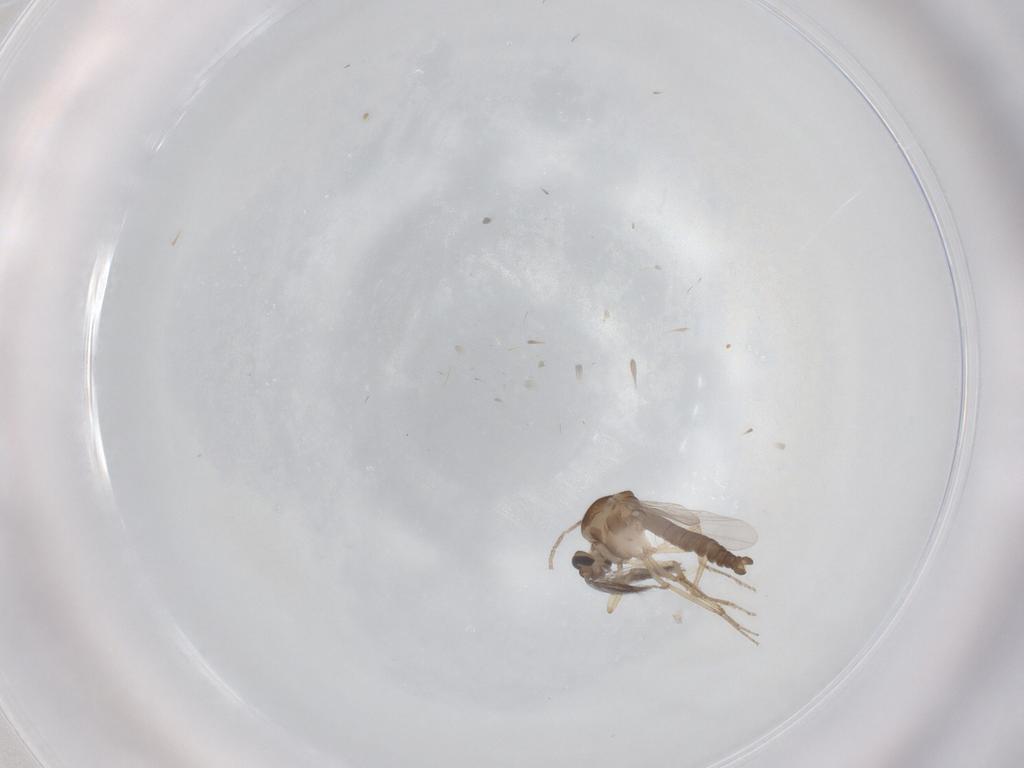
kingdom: Animalia
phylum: Arthropoda
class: Insecta
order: Diptera
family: Ceratopogonidae
